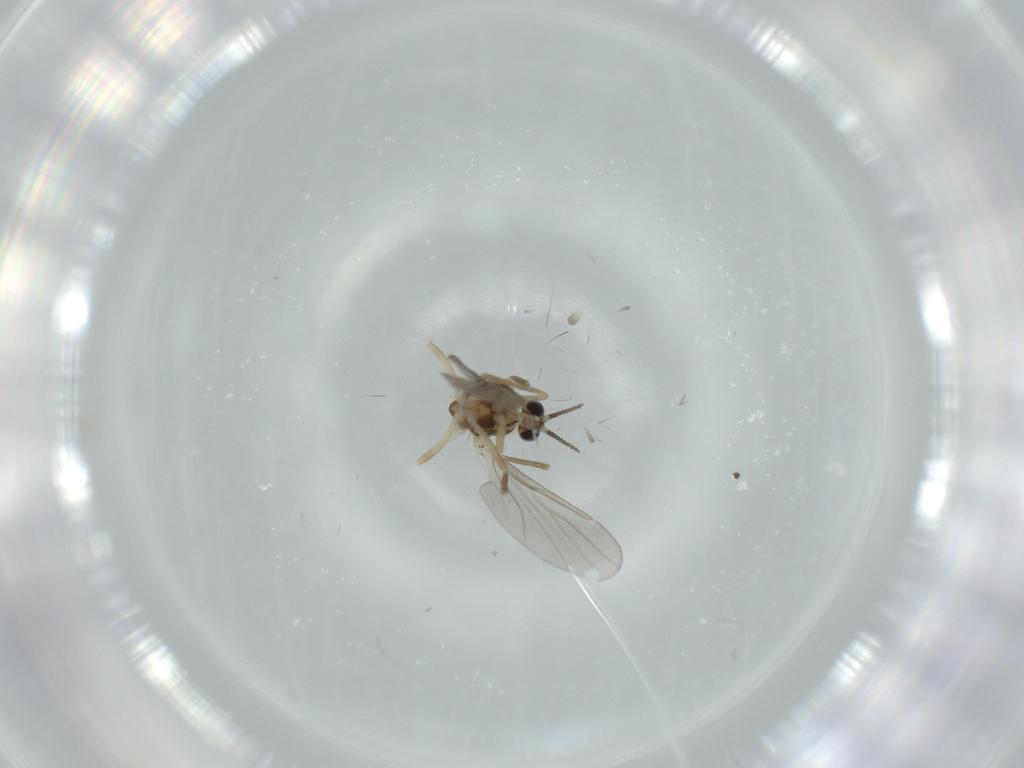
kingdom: Animalia
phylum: Arthropoda
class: Insecta
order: Diptera
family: Cecidomyiidae
